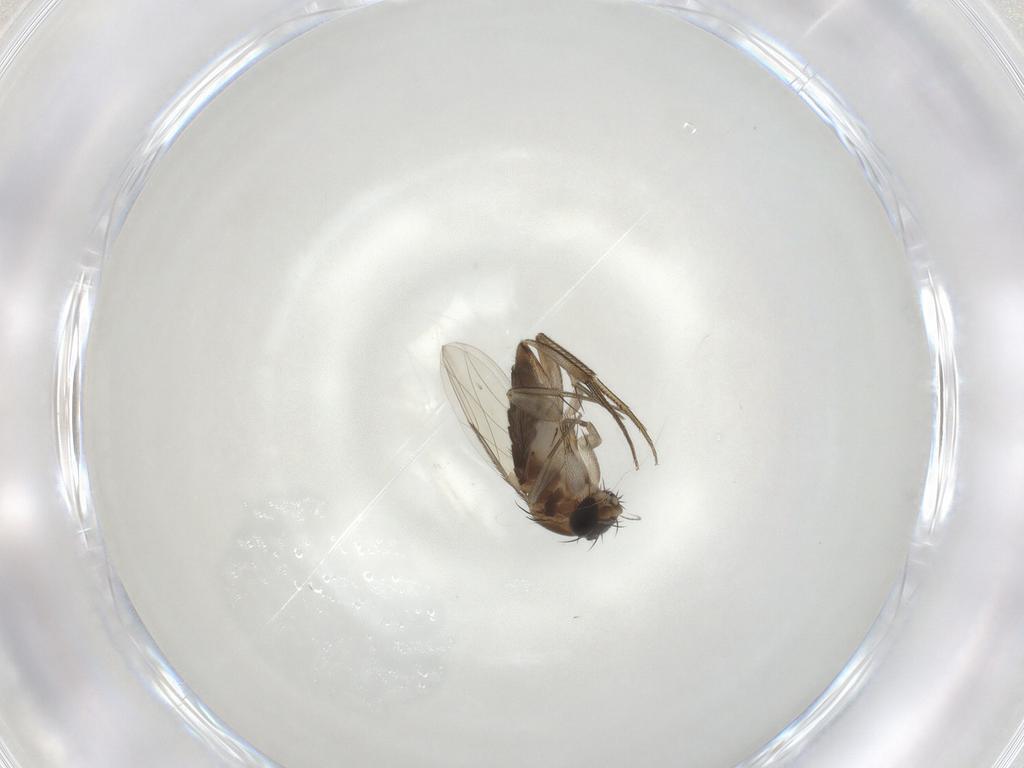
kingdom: Animalia
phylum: Arthropoda
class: Insecta
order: Diptera
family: Phoridae
